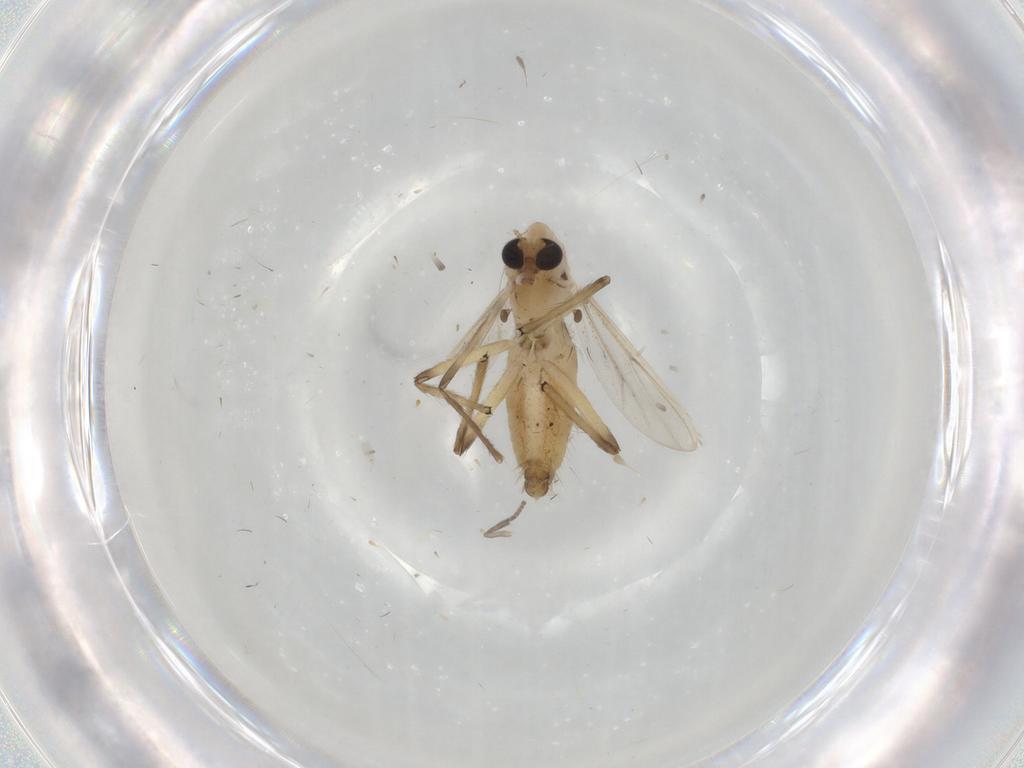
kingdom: Animalia
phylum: Arthropoda
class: Insecta
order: Diptera
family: Chironomidae
